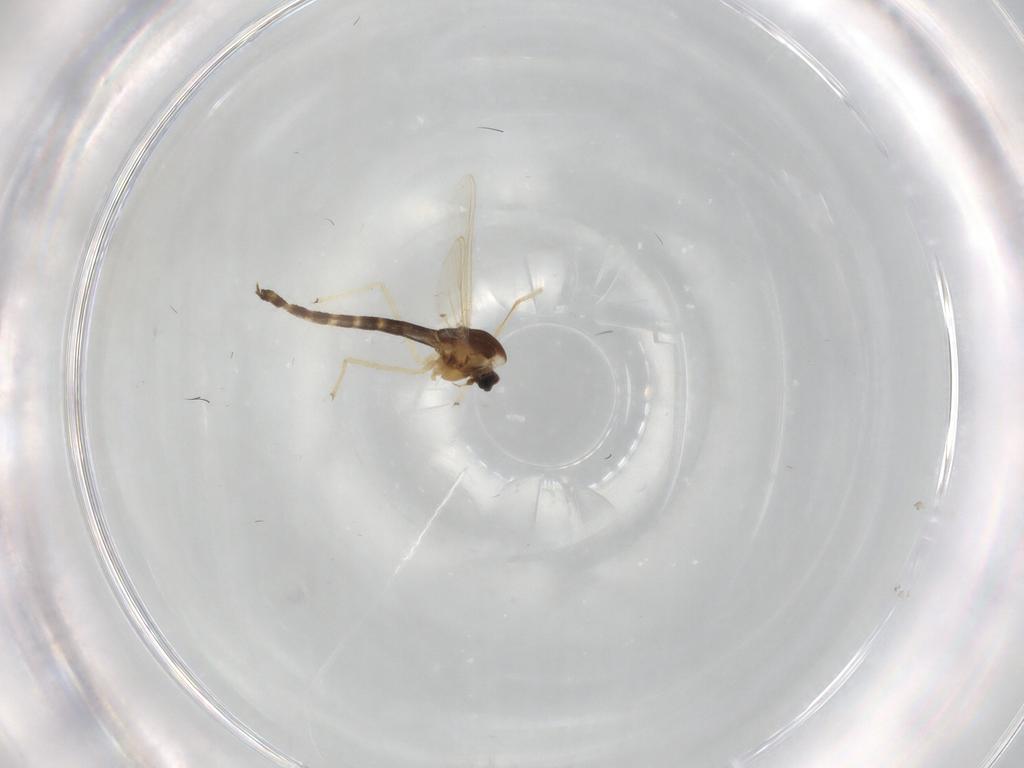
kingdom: Animalia
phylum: Arthropoda
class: Insecta
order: Diptera
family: Chironomidae
